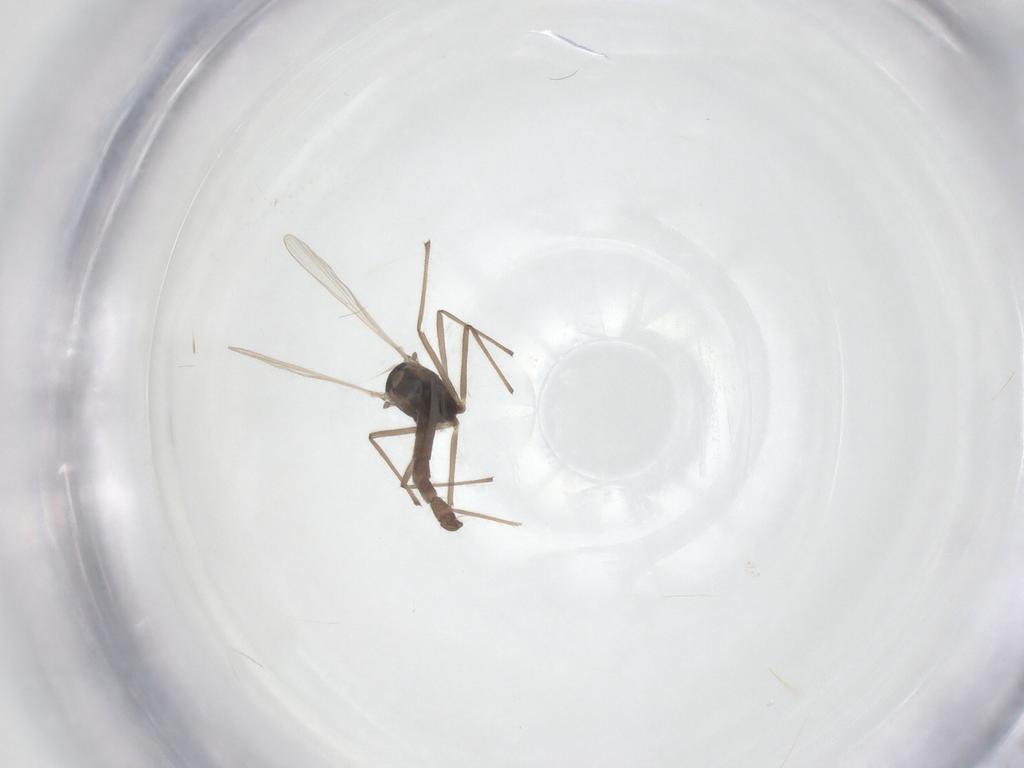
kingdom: Animalia
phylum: Arthropoda
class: Insecta
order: Diptera
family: Chironomidae
